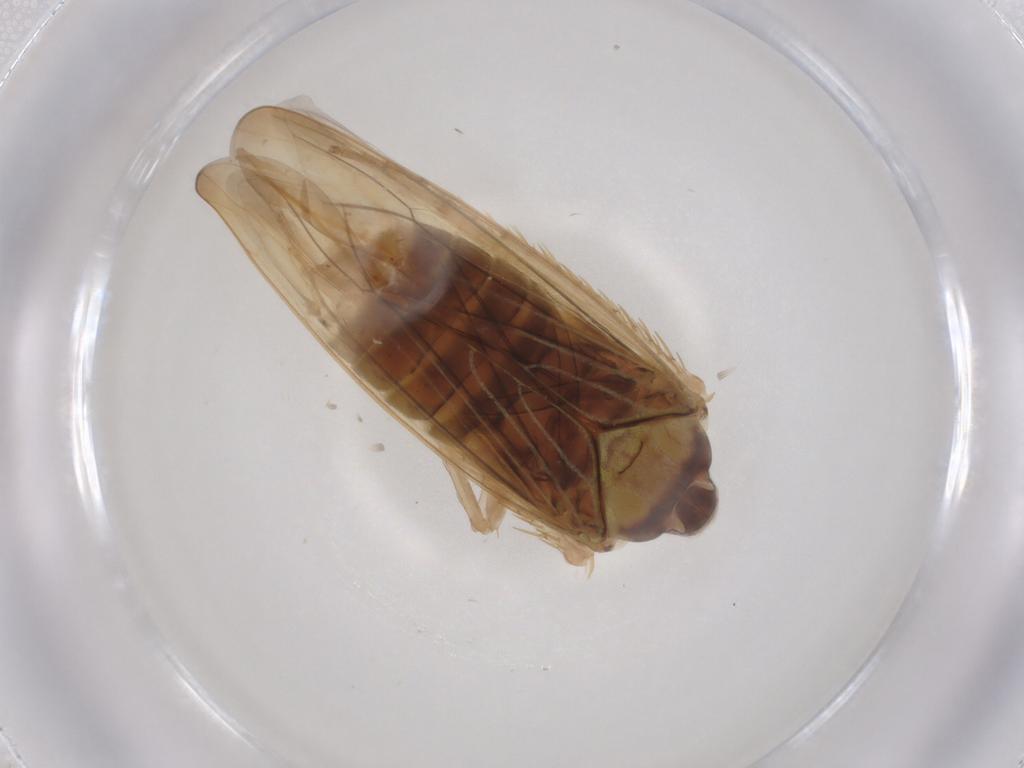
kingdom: Animalia
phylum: Arthropoda
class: Insecta
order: Hemiptera
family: Cicadellidae
